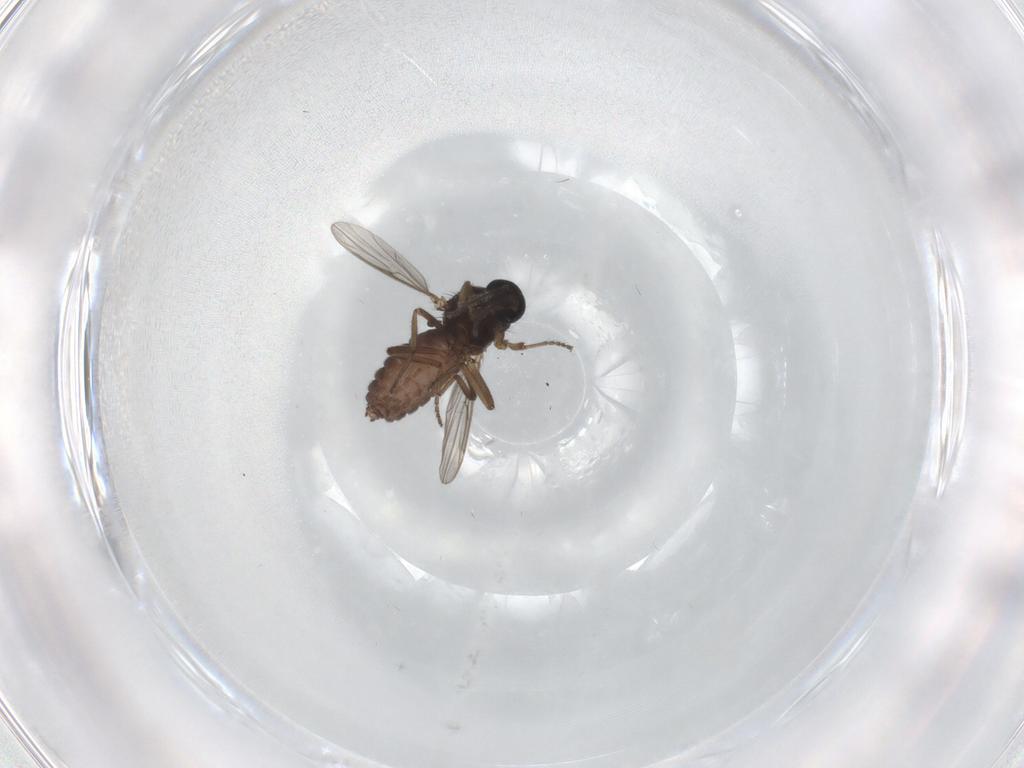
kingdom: Animalia
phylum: Arthropoda
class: Insecta
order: Diptera
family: Ceratopogonidae
